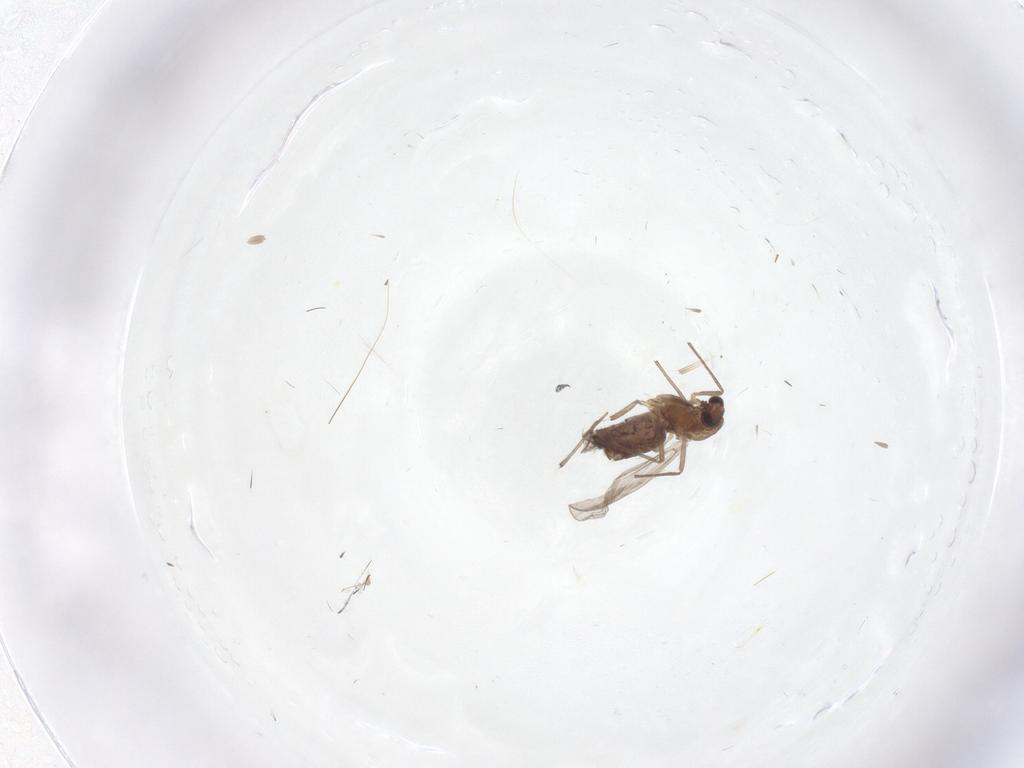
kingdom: Animalia
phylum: Arthropoda
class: Insecta
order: Diptera
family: Chironomidae
